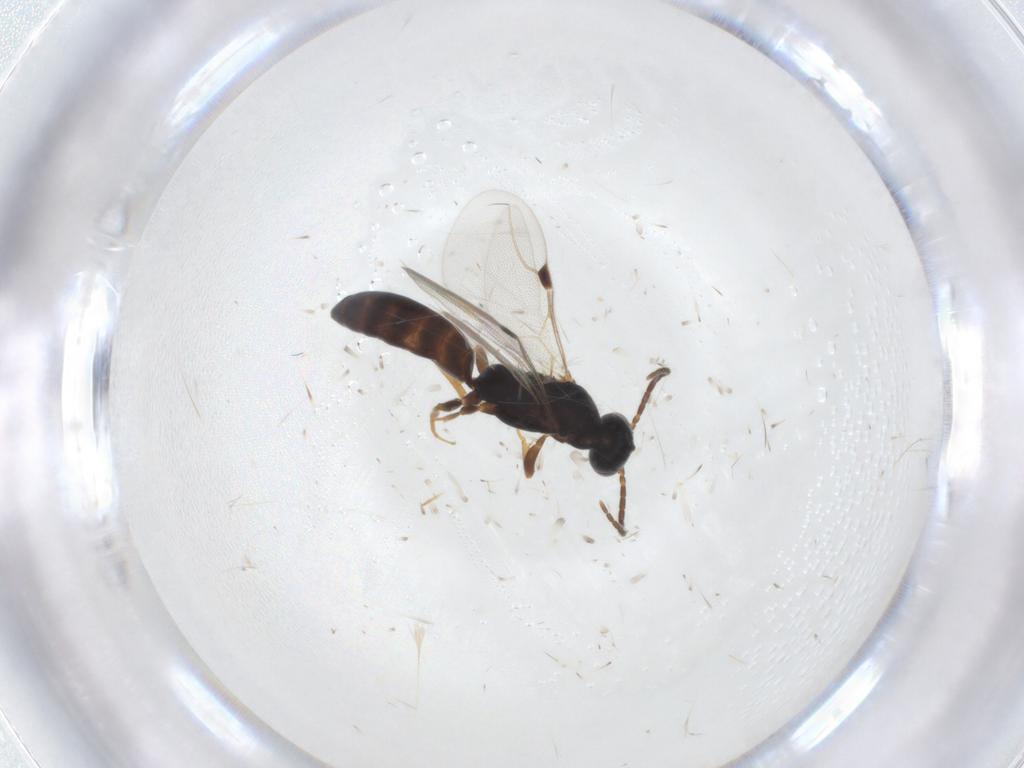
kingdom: Animalia
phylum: Arthropoda
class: Insecta
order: Hymenoptera
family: Bethylidae
